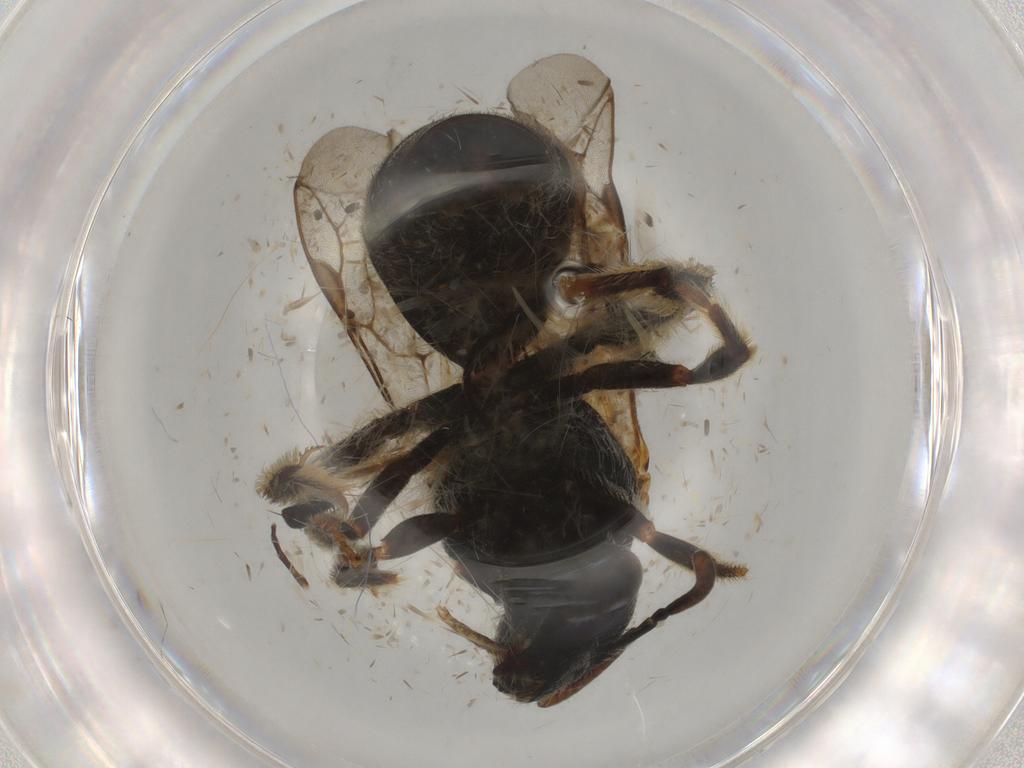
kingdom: Animalia
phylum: Arthropoda
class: Insecta
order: Hymenoptera
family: Halictidae
